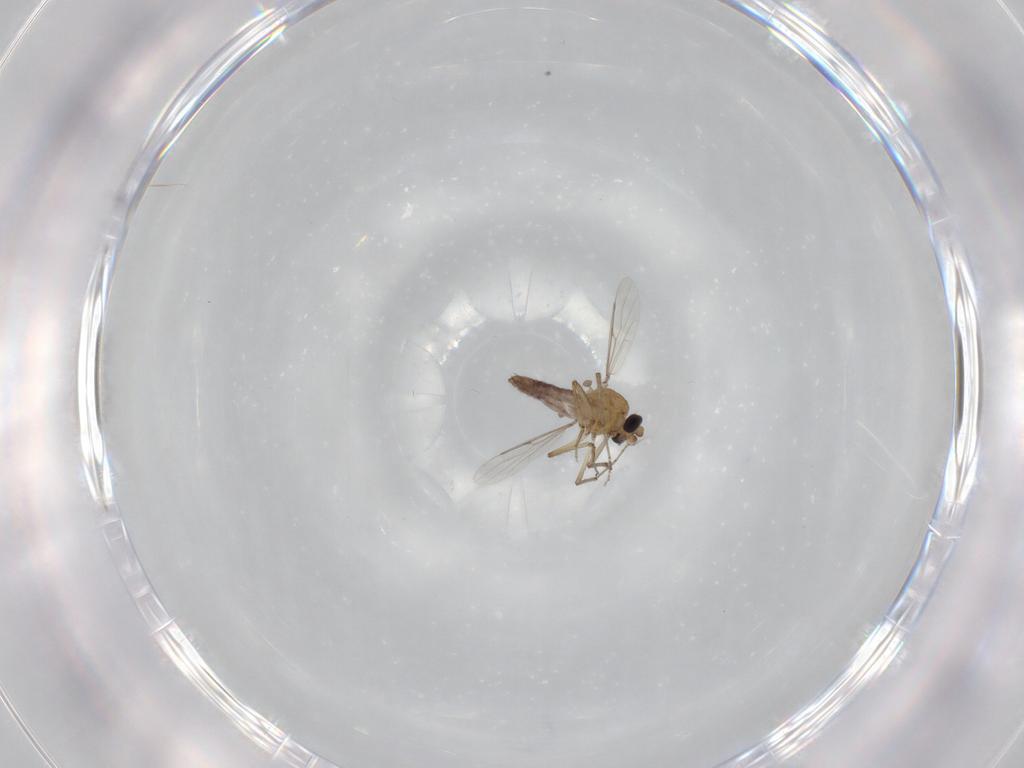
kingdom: Animalia
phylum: Arthropoda
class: Insecta
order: Diptera
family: Ceratopogonidae
